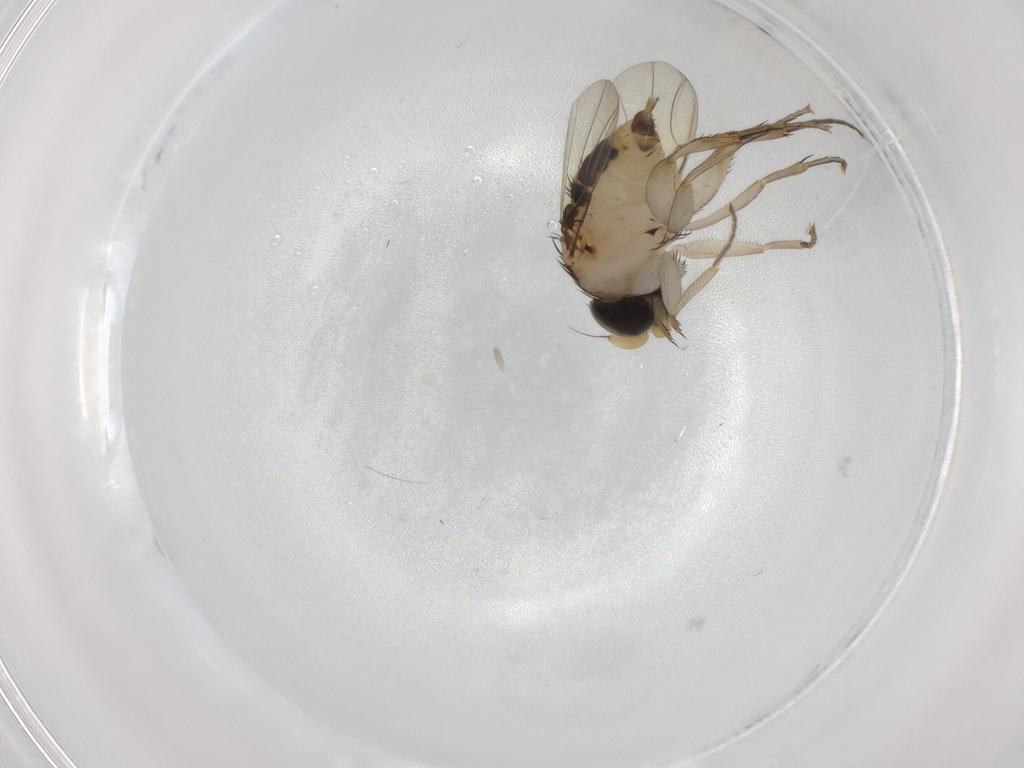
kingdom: Animalia
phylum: Arthropoda
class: Insecta
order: Diptera
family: Phoridae
